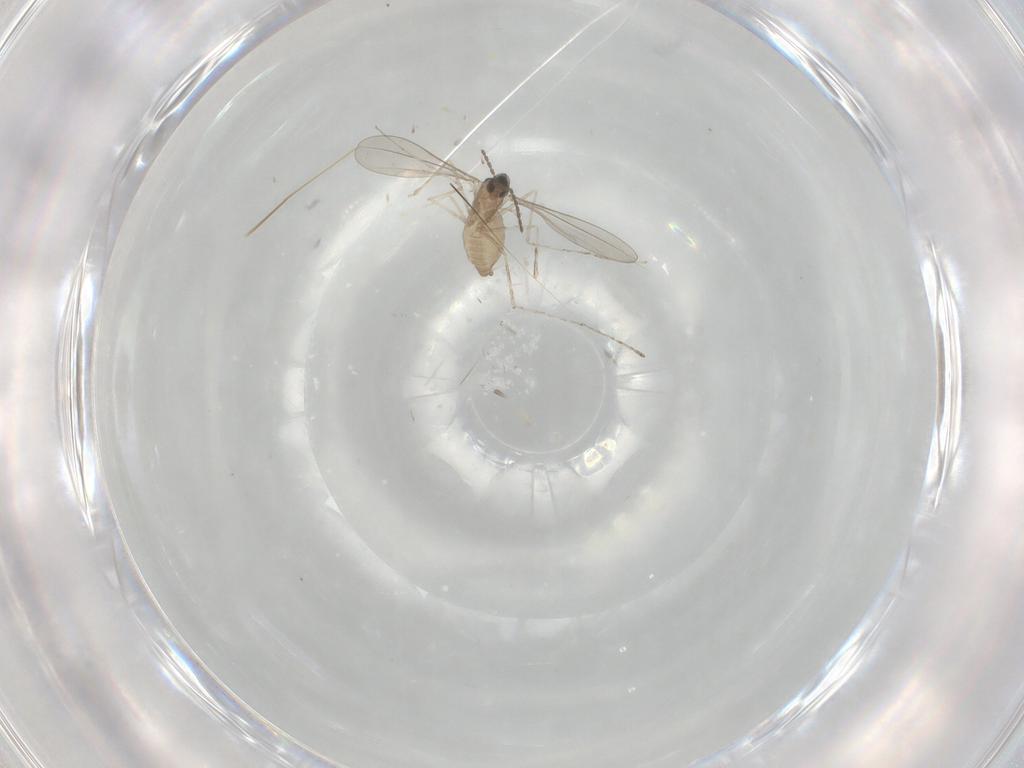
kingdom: Animalia
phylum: Arthropoda
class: Insecta
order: Diptera
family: Cecidomyiidae
